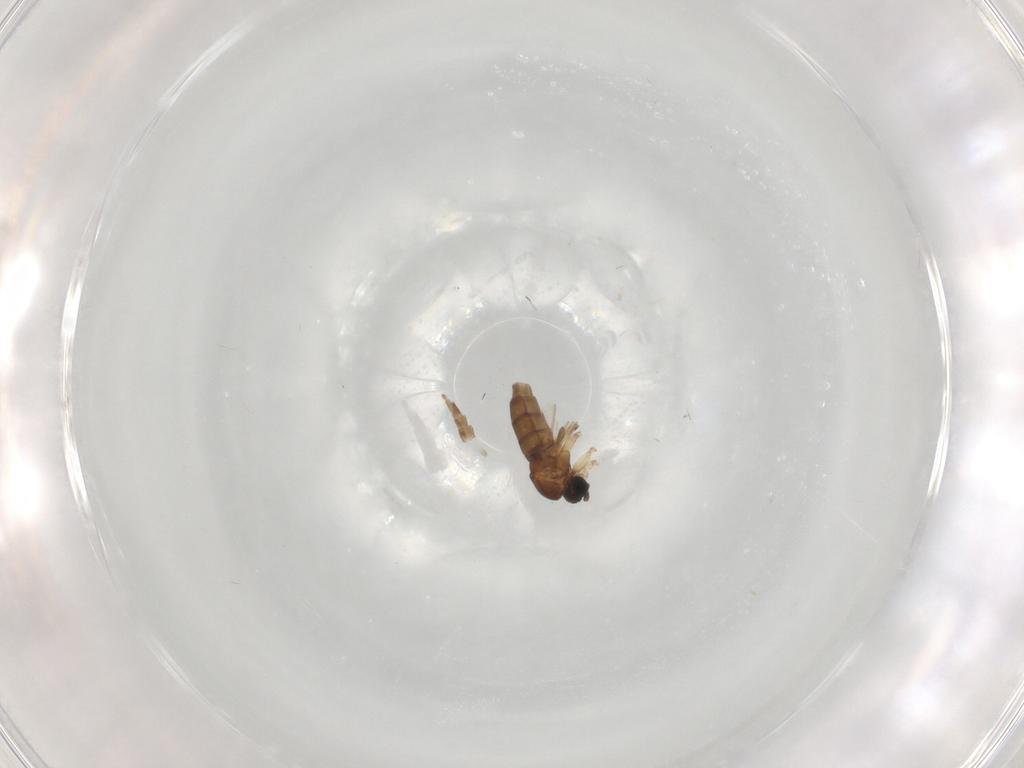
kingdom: Animalia
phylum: Arthropoda
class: Insecta
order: Diptera
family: Sciaridae
